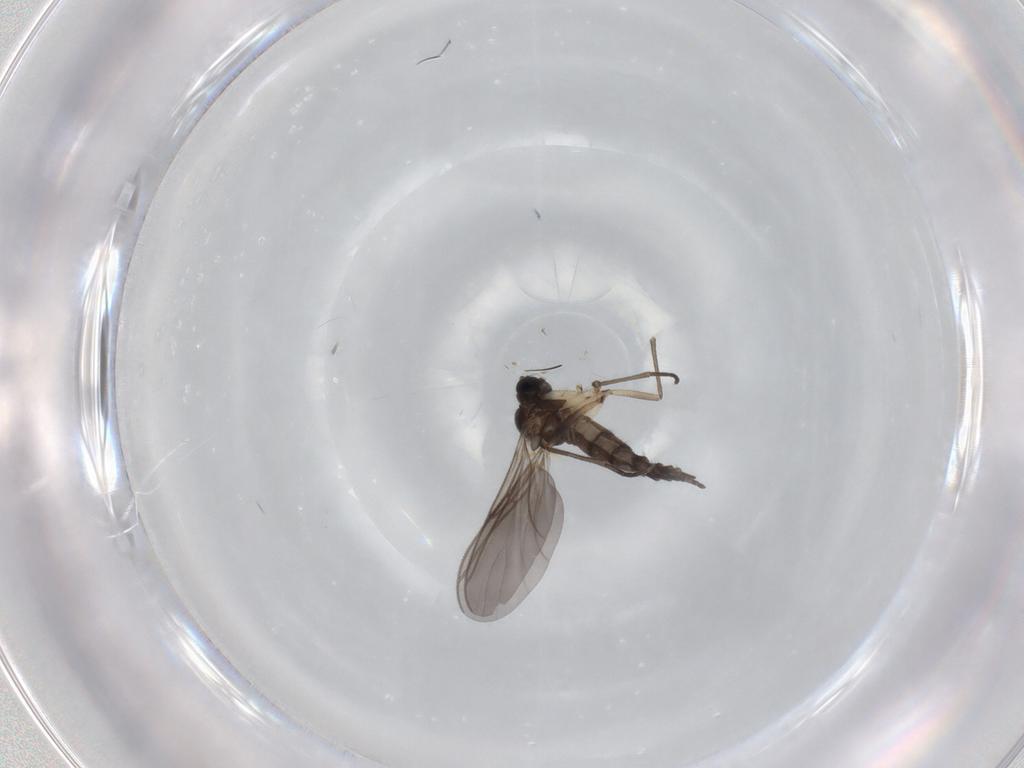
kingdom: Animalia
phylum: Arthropoda
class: Insecta
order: Diptera
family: Sciaridae
